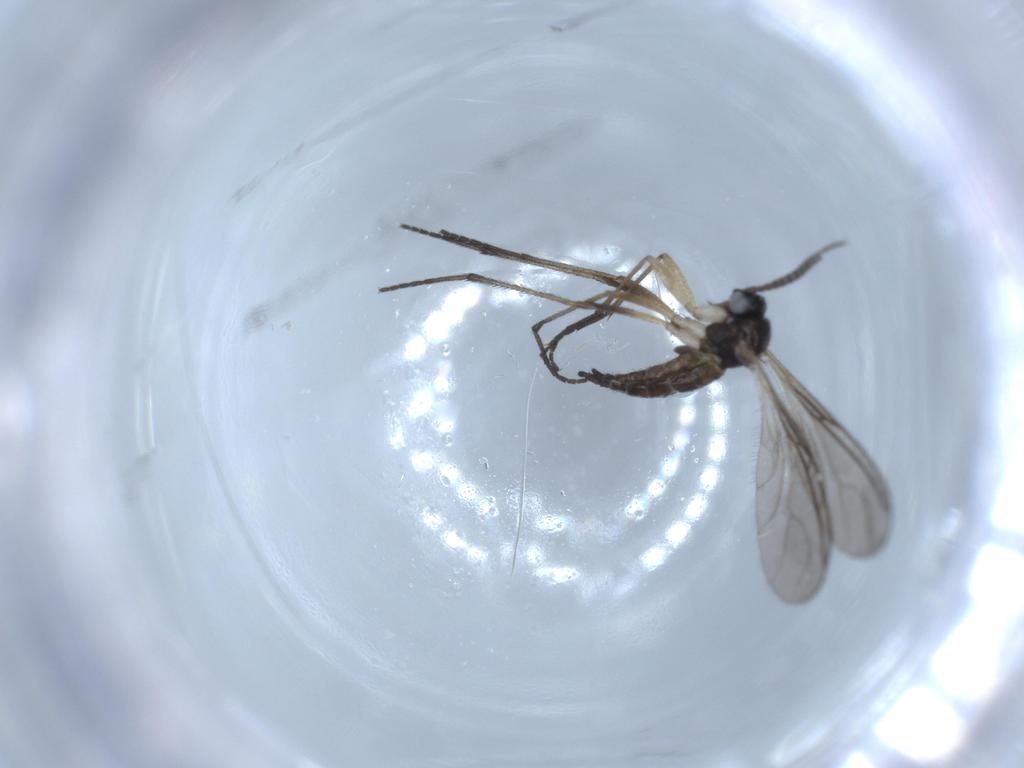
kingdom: Animalia
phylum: Arthropoda
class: Insecta
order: Diptera
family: Sciaridae
